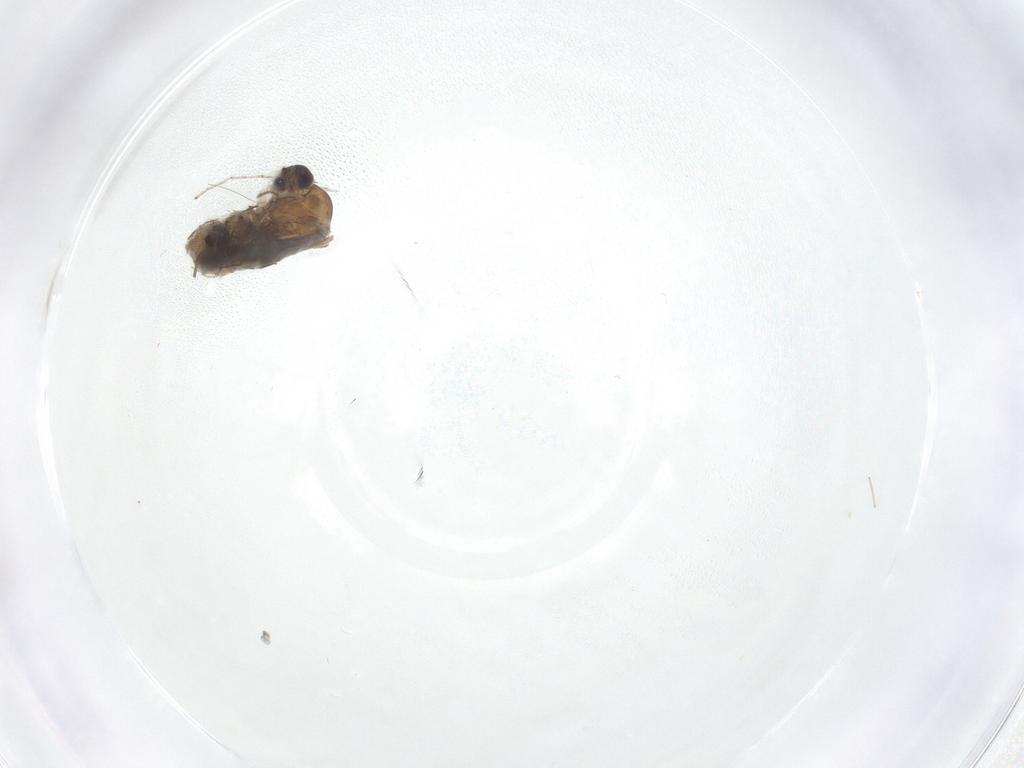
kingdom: Animalia
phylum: Arthropoda
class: Insecta
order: Diptera
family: Ceratopogonidae
